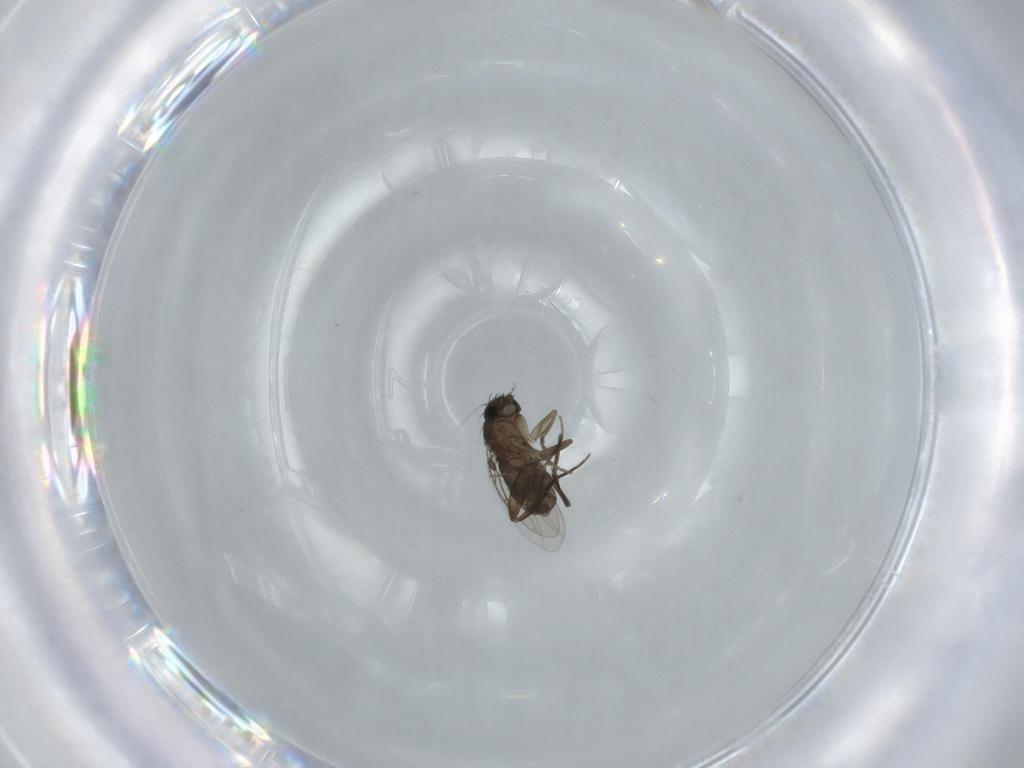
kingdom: Animalia
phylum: Arthropoda
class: Insecta
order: Diptera
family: Phoridae
